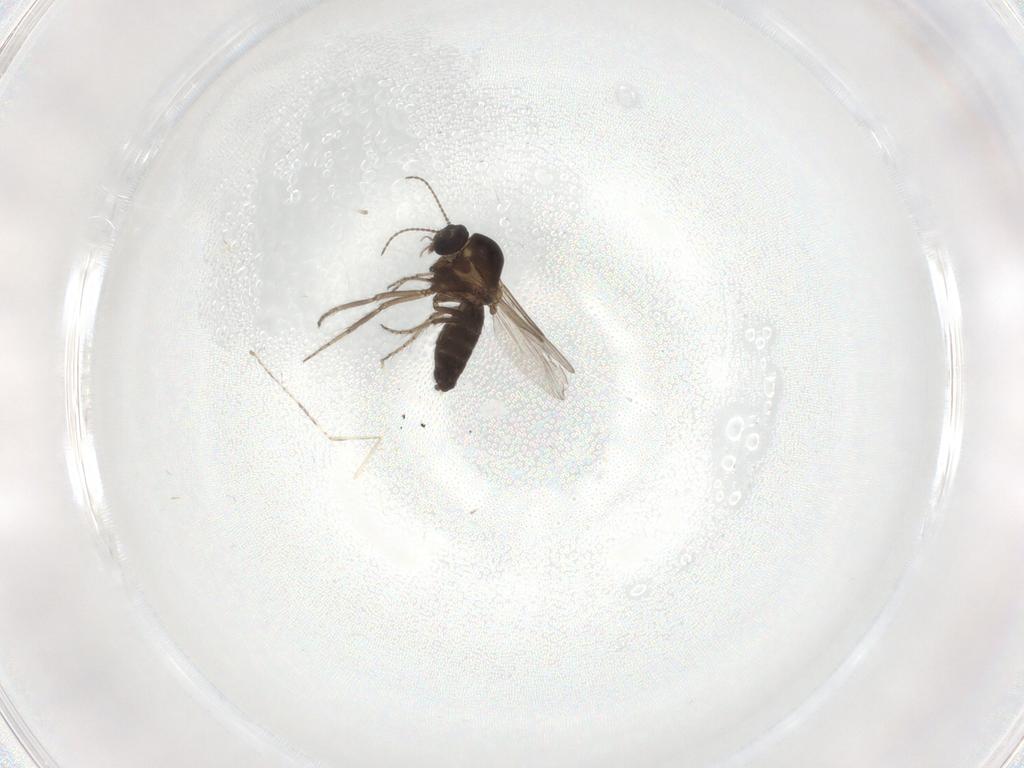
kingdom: Animalia
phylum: Arthropoda
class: Insecta
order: Diptera
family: Ceratopogonidae
